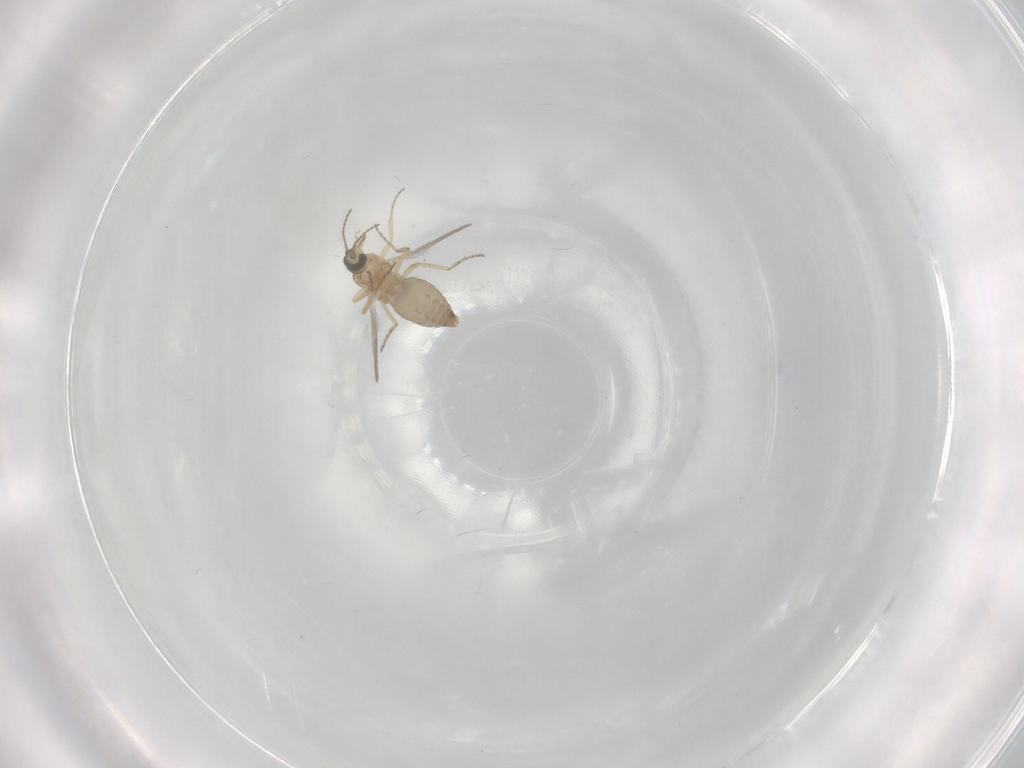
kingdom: Animalia
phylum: Arthropoda
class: Insecta
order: Diptera
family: Ceratopogonidae
